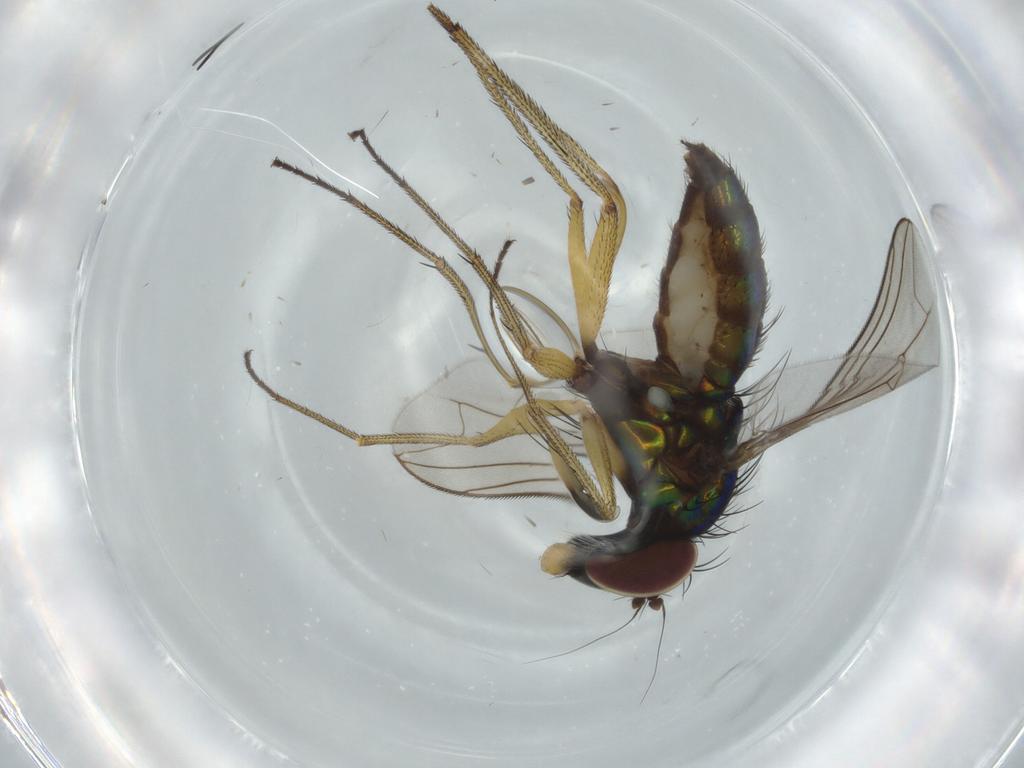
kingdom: Animalia
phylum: Arthropoda
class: Insecta
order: Diptera
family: Dolichopodidae
